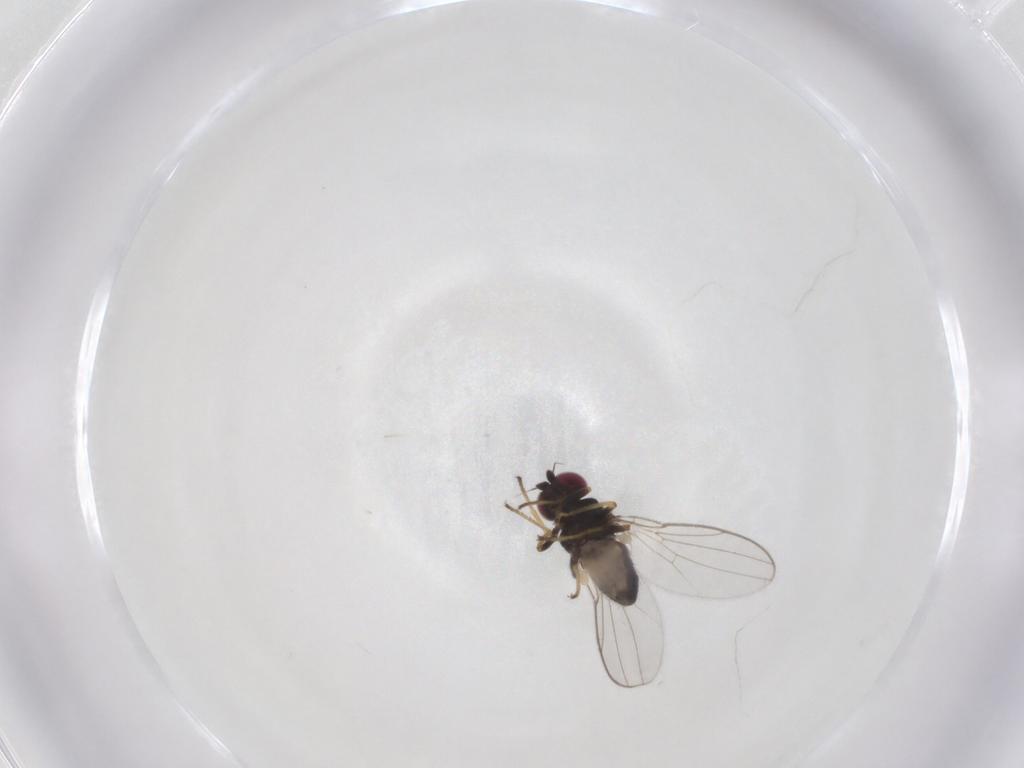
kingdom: Animalia
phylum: Arthropoda
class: Insecta
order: Diptera
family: Chloropidae
